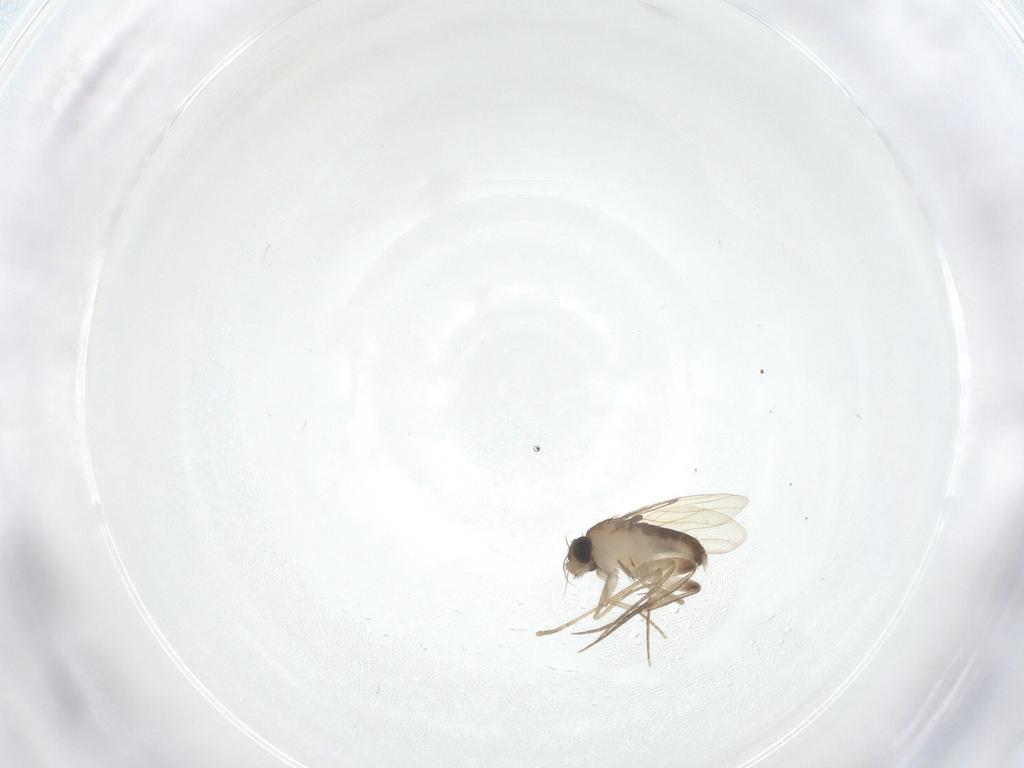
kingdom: Animalia
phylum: Arthropoda
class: Insecta
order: Diptera
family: Phoridae
